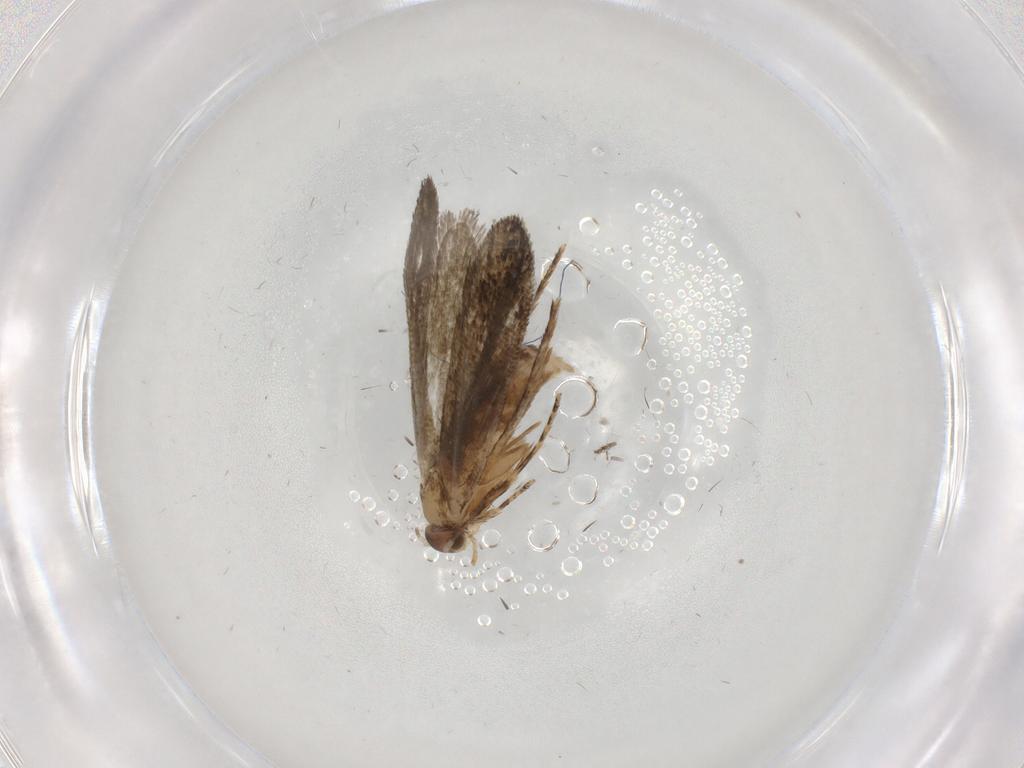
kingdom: Animalia
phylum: Arthropoda
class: Insecta
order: Lepidoptera
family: Tineidae
